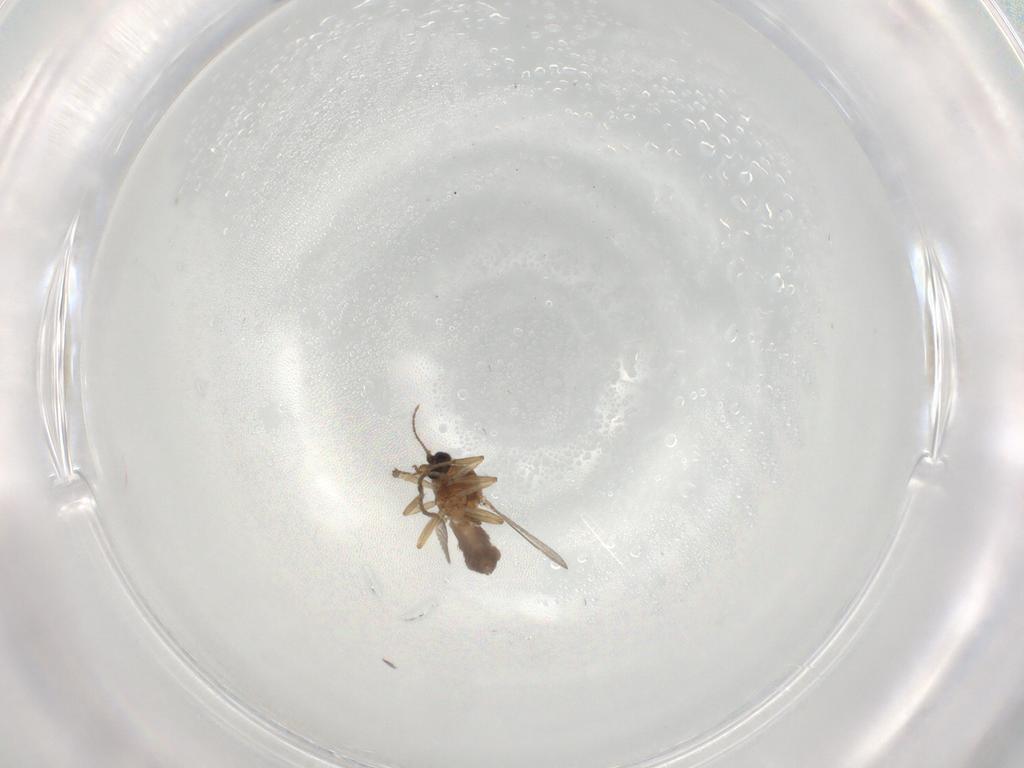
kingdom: Animalia
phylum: Arthropoda
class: Insecta
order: Diptera
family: Ceratopogonidae
